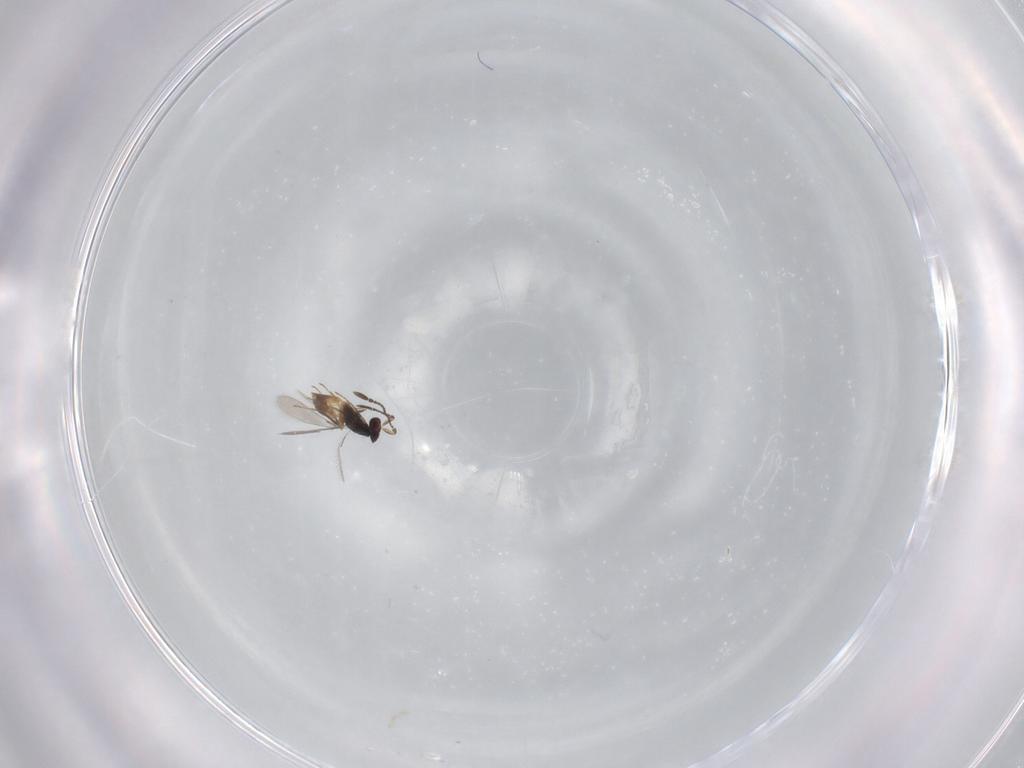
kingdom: Animalia
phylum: Arthropoda
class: Insecta
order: Hymenoptera
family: Mymaridae
